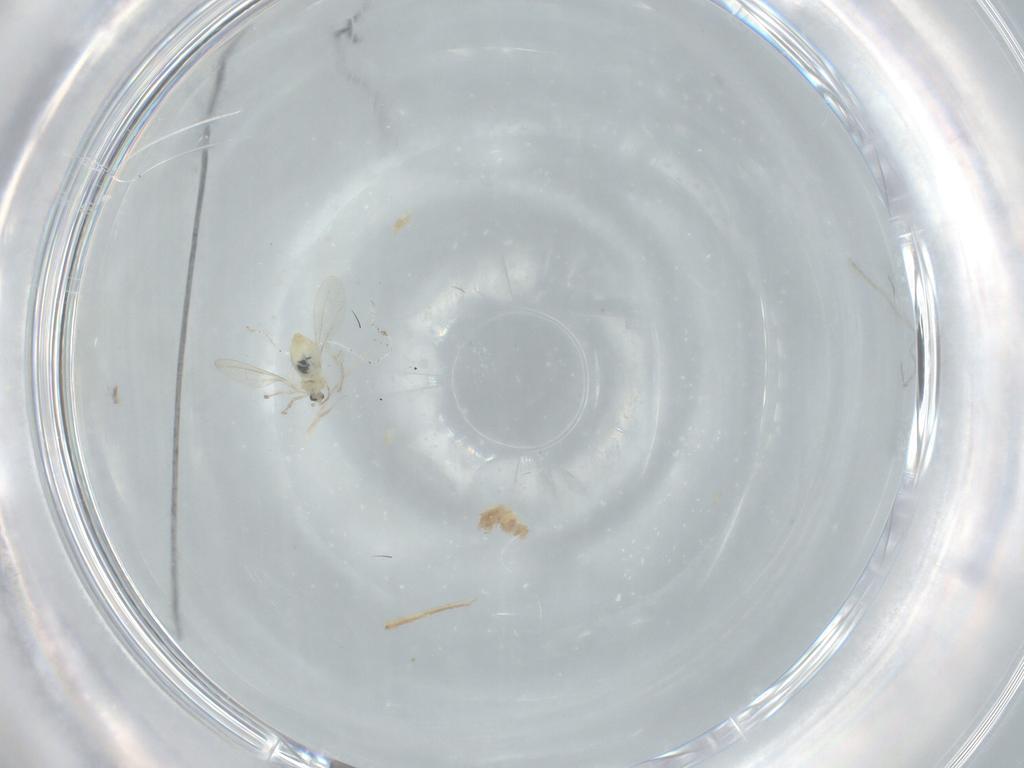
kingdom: Animalia
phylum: Arthropoda
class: Insecta
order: Diptera
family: Cecidomyiidae
